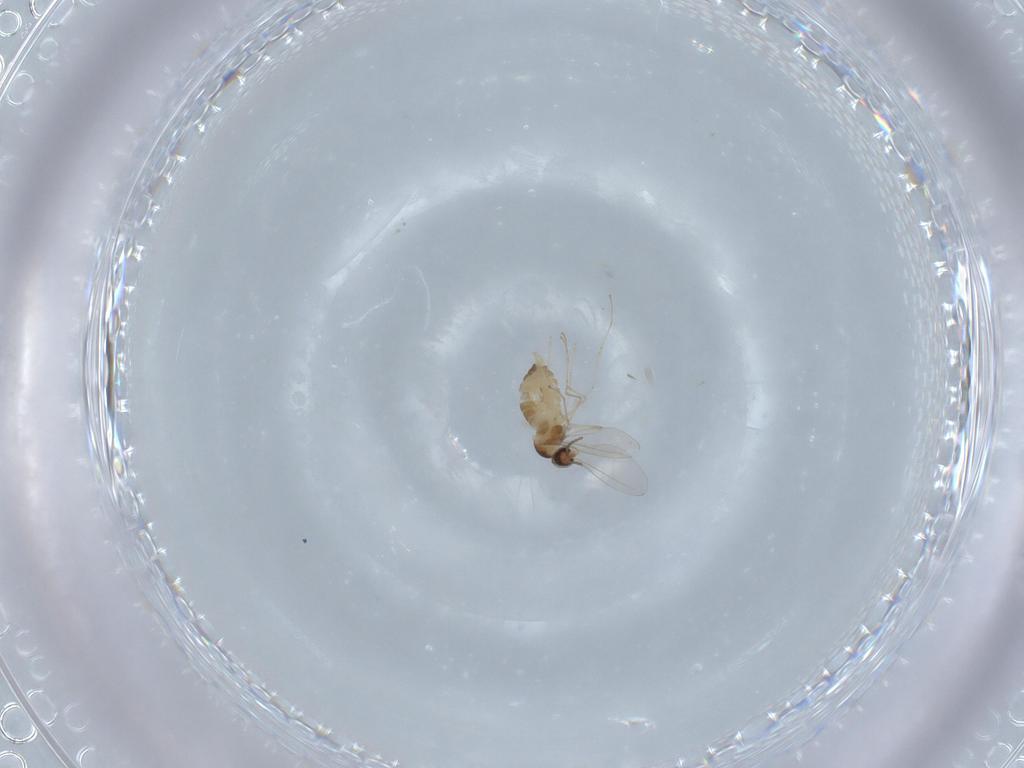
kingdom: Animalia
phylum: Arthropoda
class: Insecta
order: Diptera
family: Cecidomyiidae
